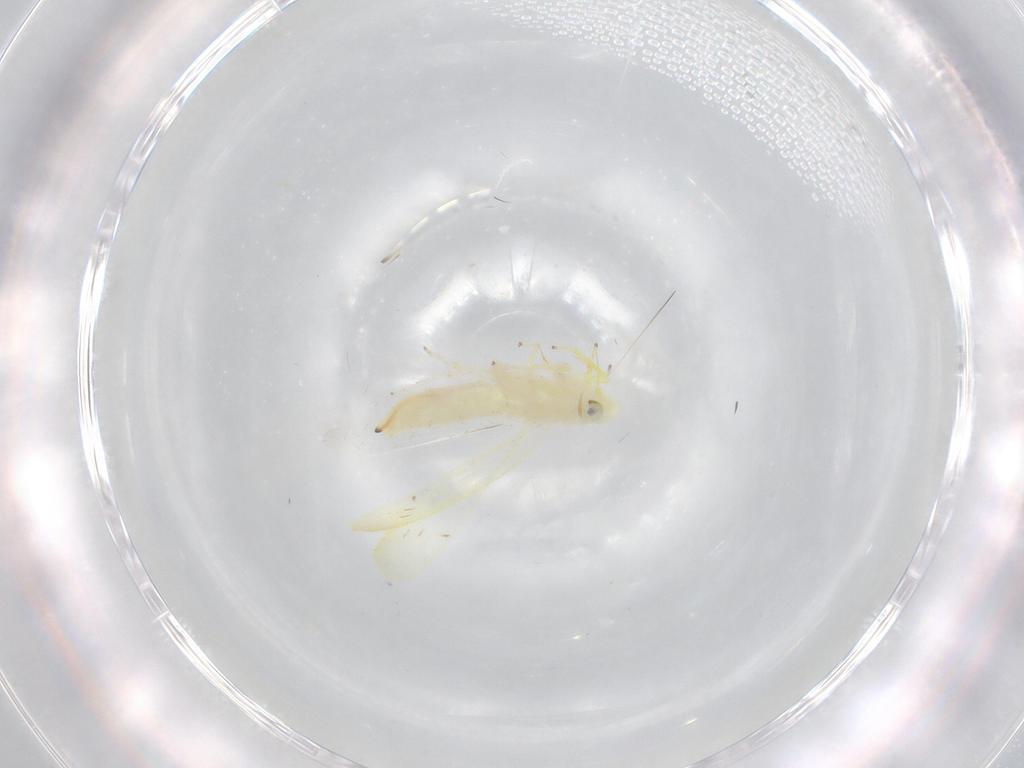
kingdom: Animalia
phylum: Arthropoda
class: Insecta
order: Hemiptera
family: Cicadellidae
